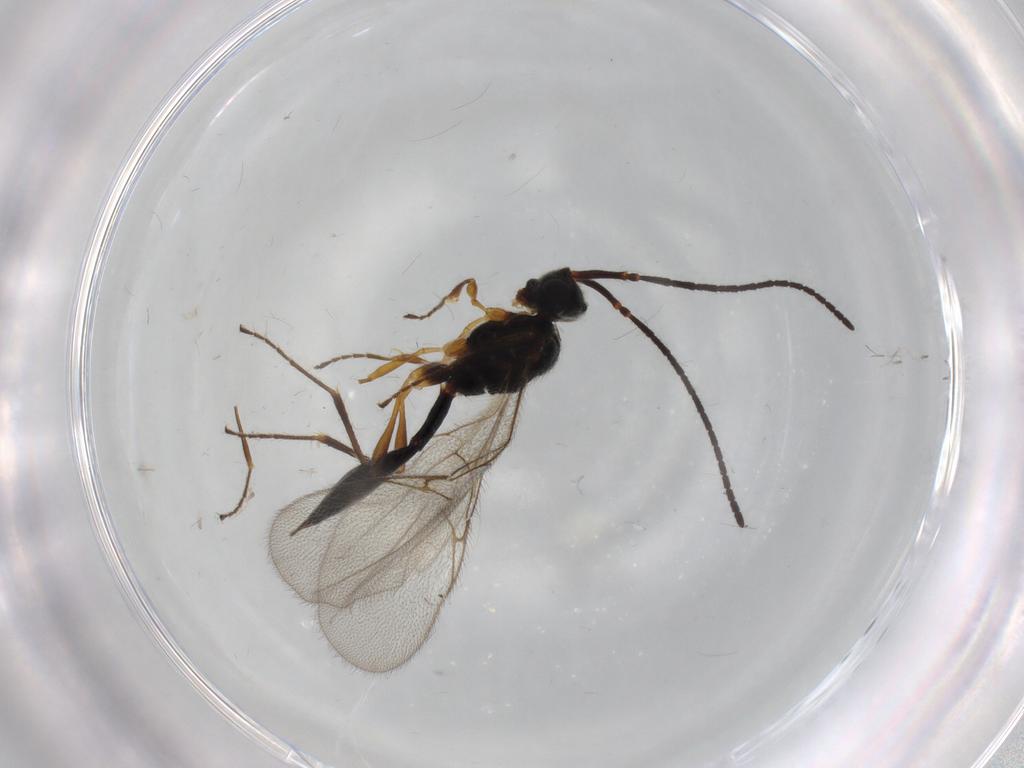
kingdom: Animalia
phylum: Arthropoda
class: Insecta
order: Hymenoptera
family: Diapriidae
